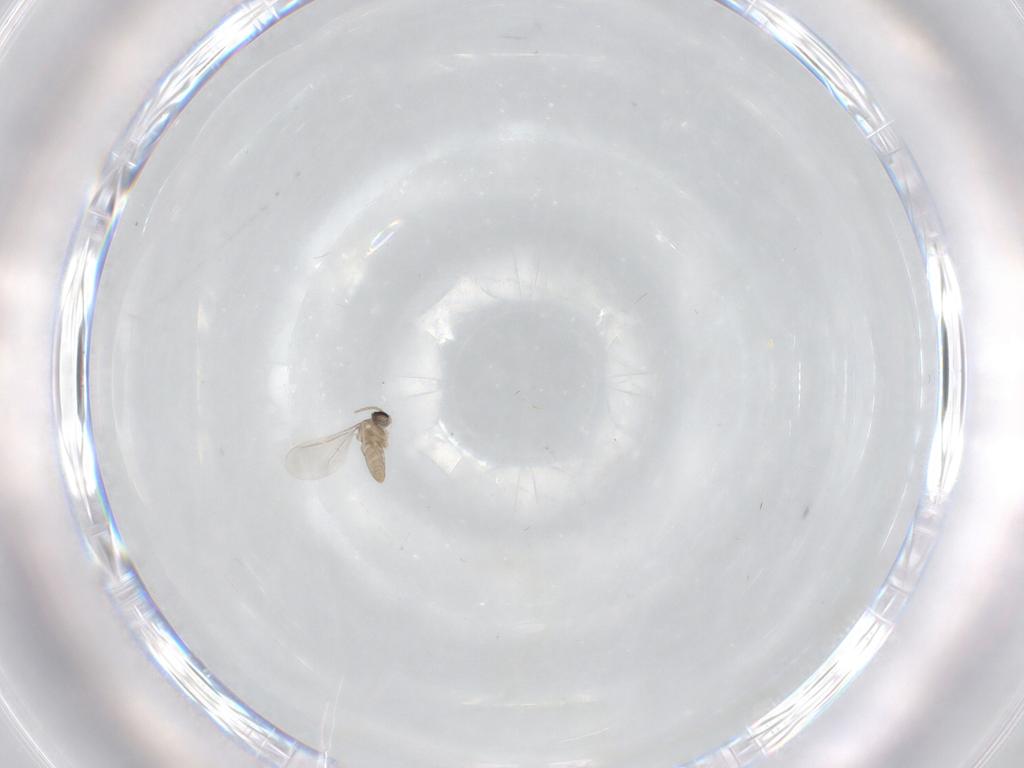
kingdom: Animalia
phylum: Arthropoda
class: Insecta
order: Diptera
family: Cecidomyiidae
